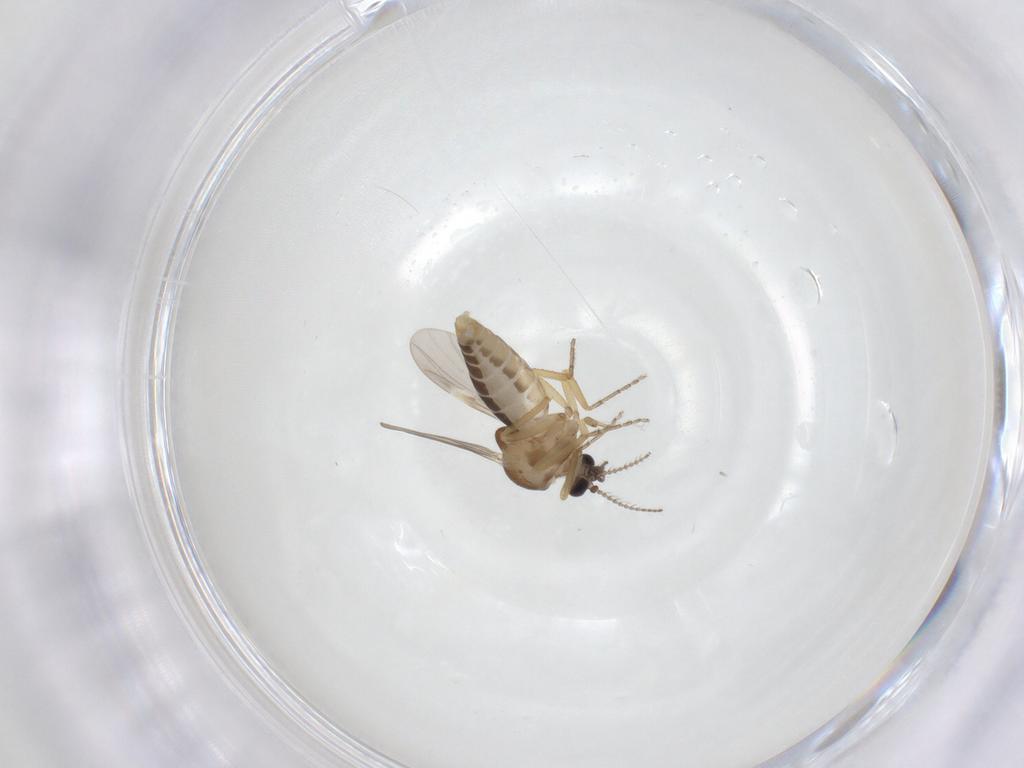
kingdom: Animalia
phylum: Arthropoda
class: Insecta
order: Diptera
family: Ceratopogonidae
